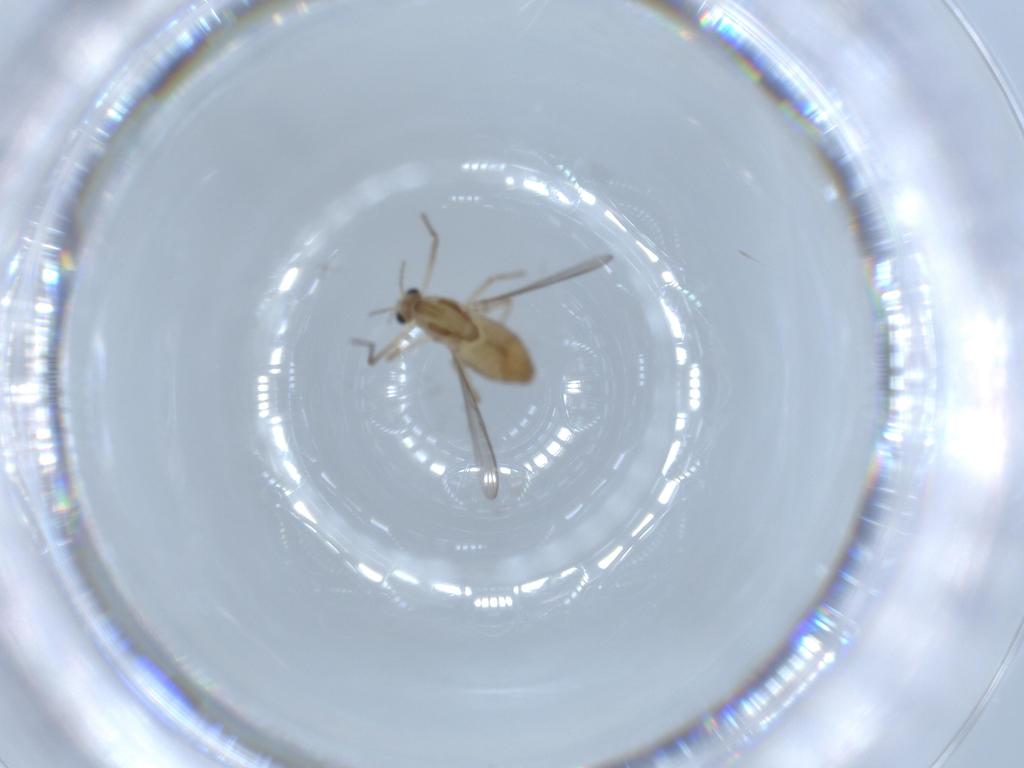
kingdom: Animalia
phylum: Arthropoda
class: Insecta
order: Diptera
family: Chironomidae
